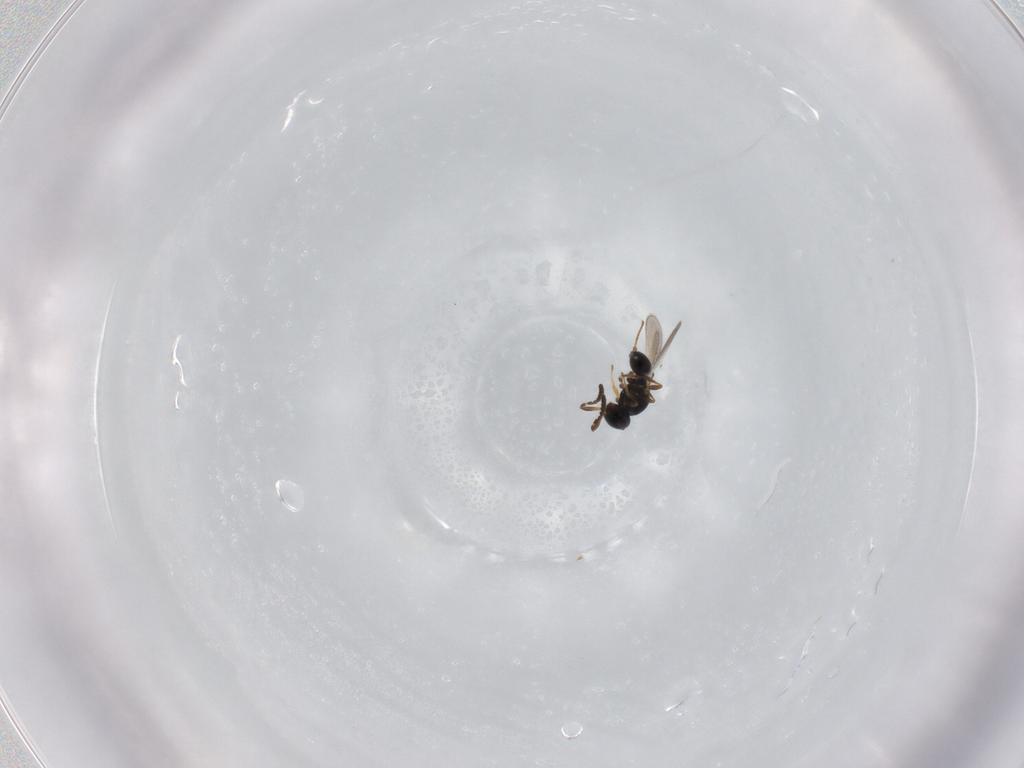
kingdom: Animalia
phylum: Arthropoda
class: Insecta
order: Hymenoptera
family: Platygastridae
